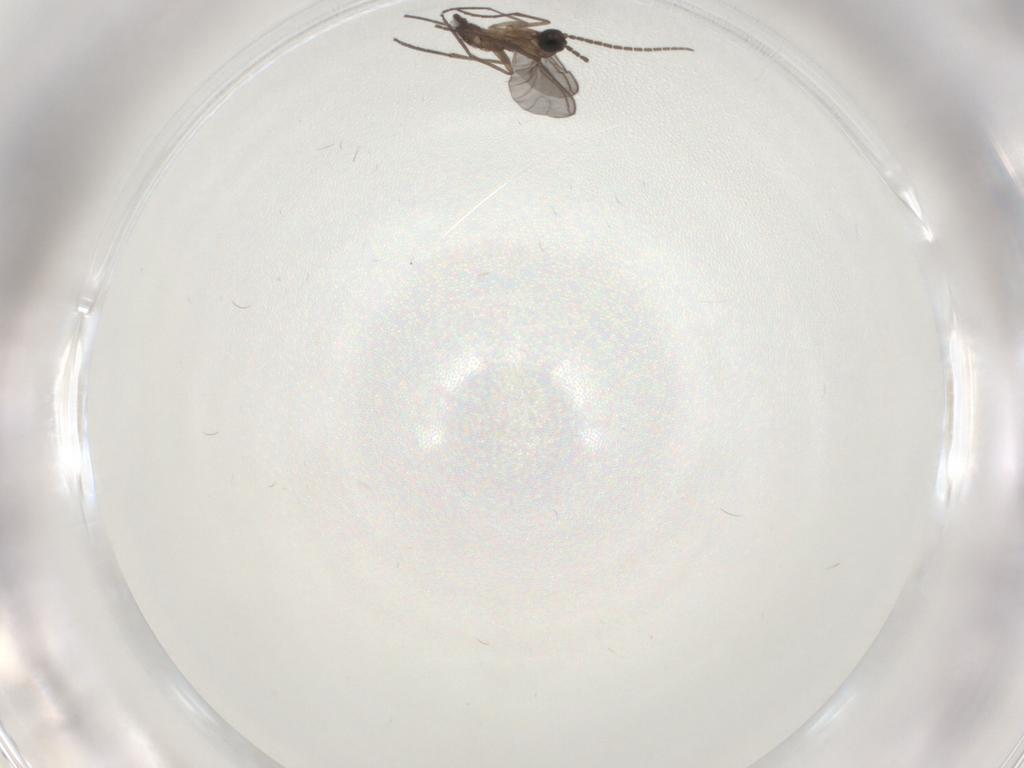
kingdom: Animalia
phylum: Arthropoda
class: Insecta
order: Diptera
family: Sciaridae
